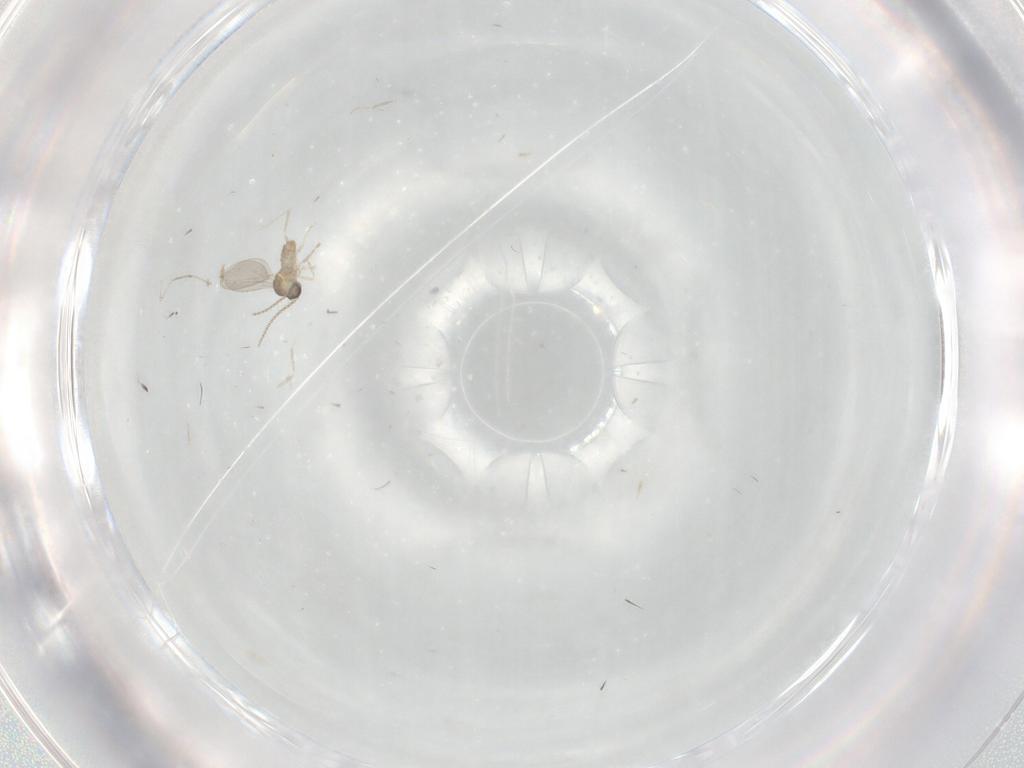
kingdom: Animalia
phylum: Arthropoda
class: Insecta
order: Diptera
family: Cecidomyiidae
